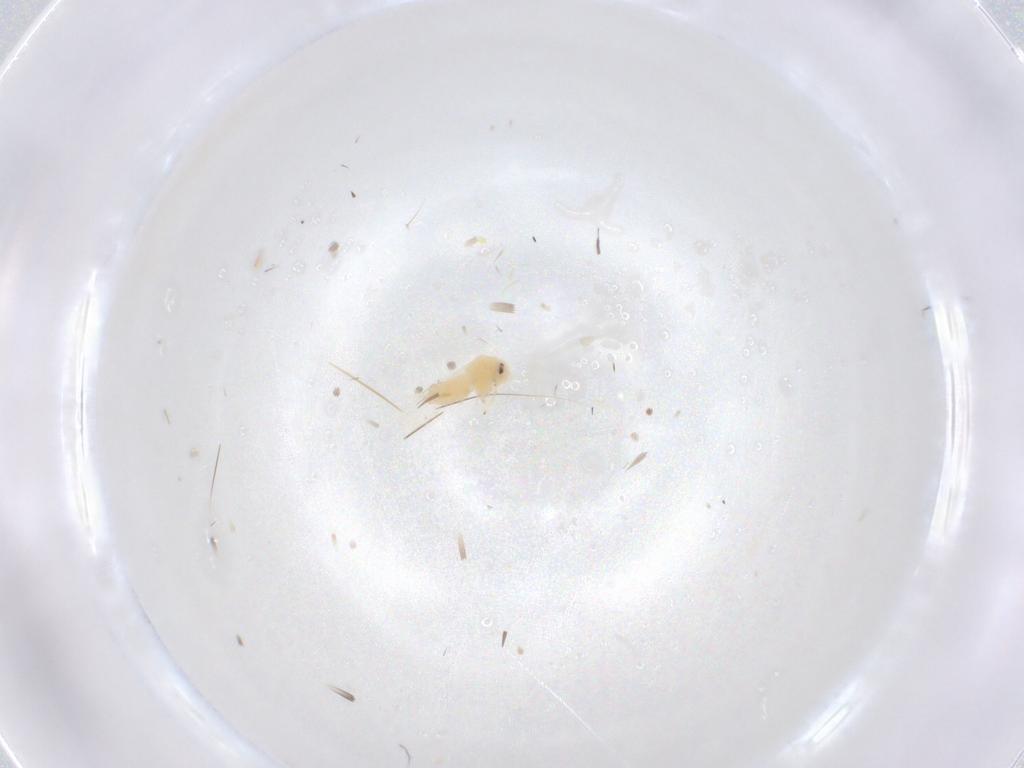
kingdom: Animalia
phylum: Arthropoda
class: Insecta
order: Hemiptera
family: Aleyrodidae
